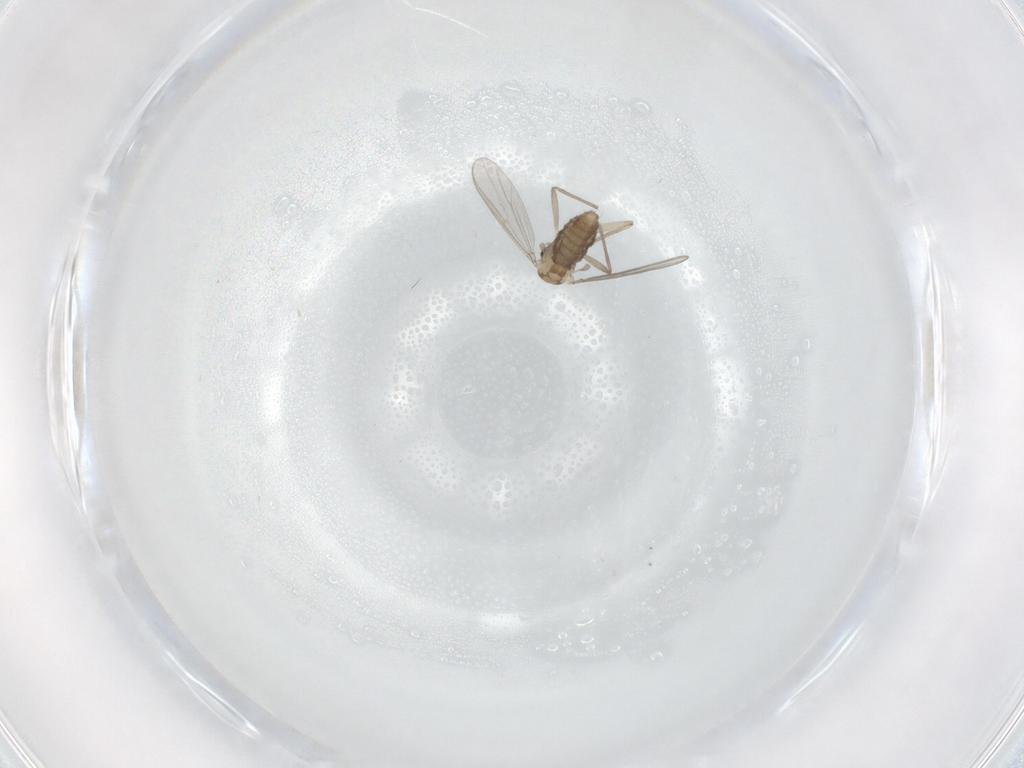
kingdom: Animalia
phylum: Arthropoda
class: Insecta
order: Diptera
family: Chironomidae
